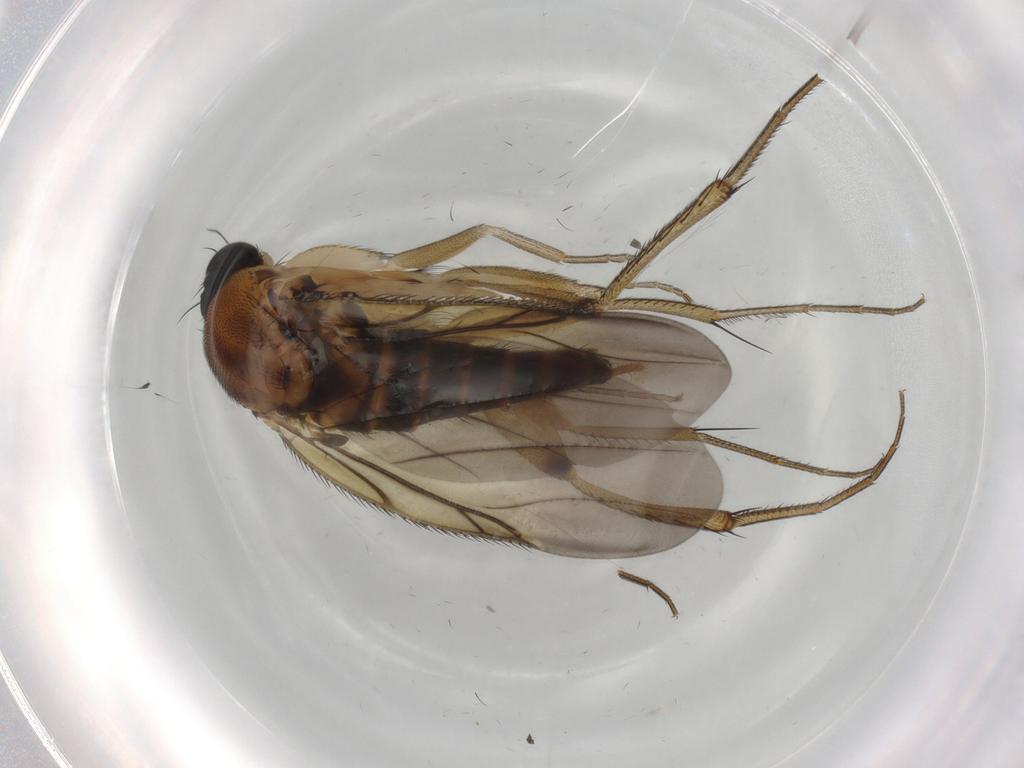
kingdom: Animalia
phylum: Arthropoda
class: Insecta
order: Diptera
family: Phoridae
